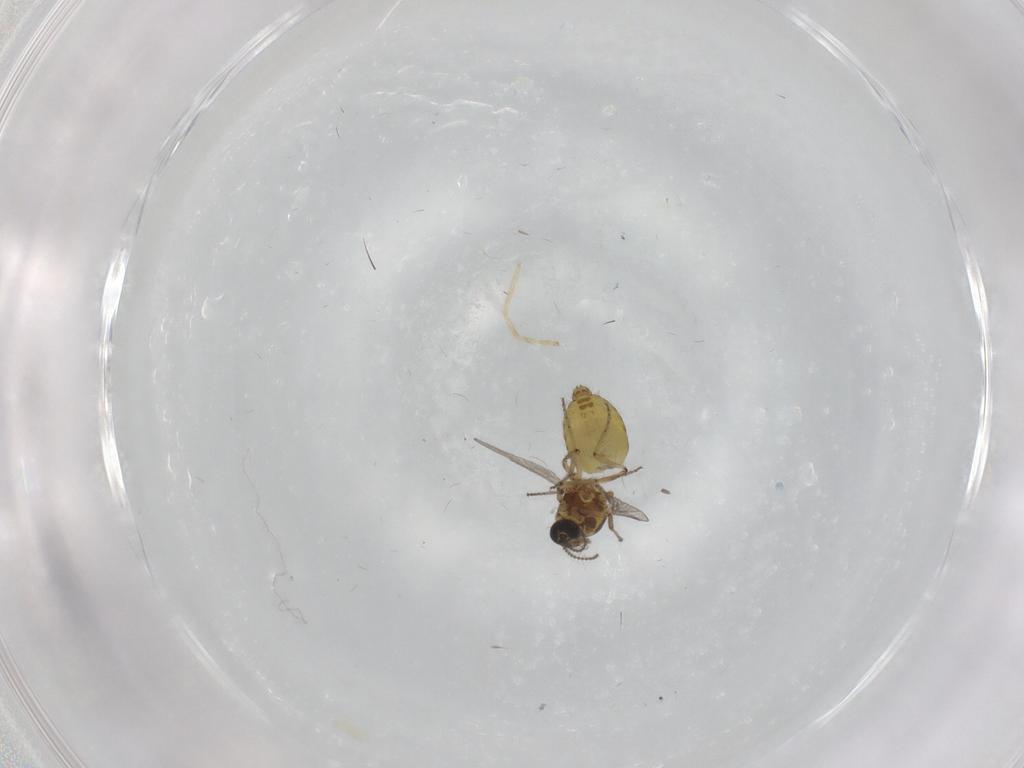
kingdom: Animalia
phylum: Arthropoda
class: Insecta
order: Diptera
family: Ceratopogonidae
